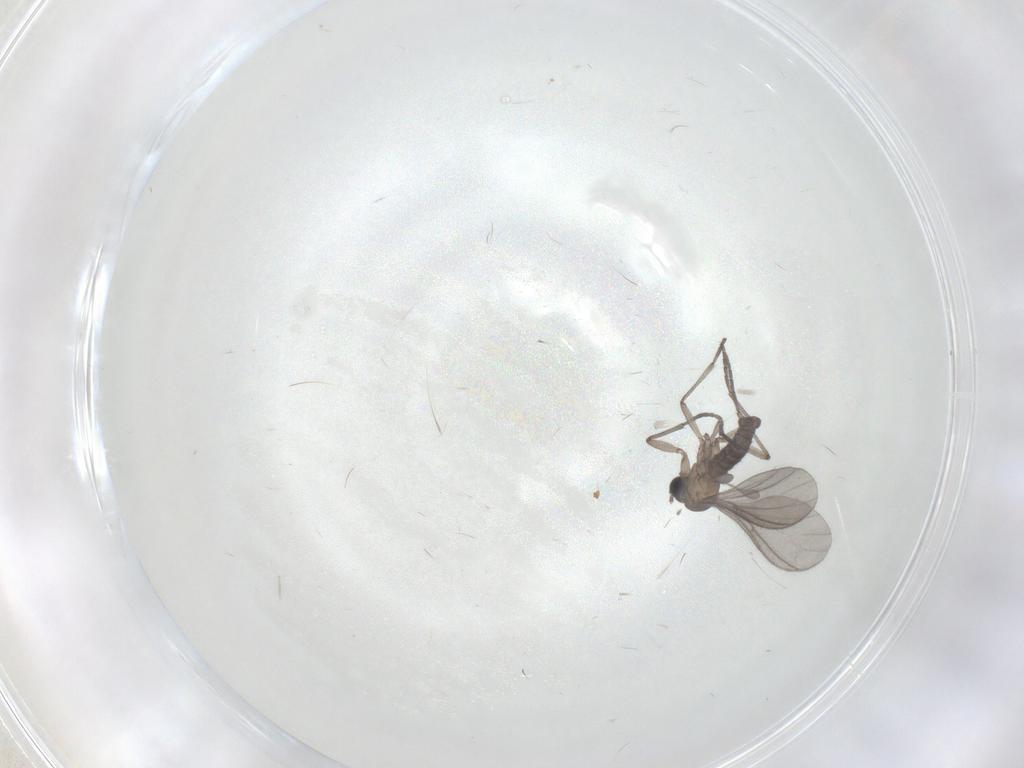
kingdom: Animalia
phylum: Arthropoda
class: Insecta
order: Diptera
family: Sciaridae
